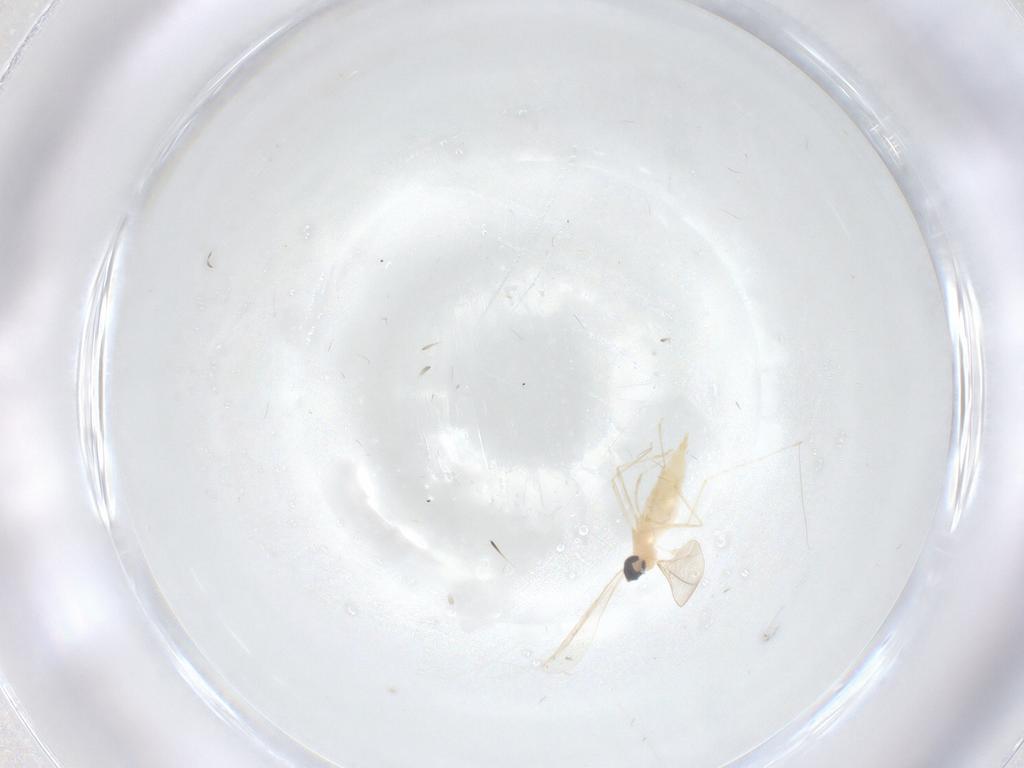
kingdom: Animalia
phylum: Arthropoda
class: Insecta
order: Diptera
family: Cecidomyiidae
